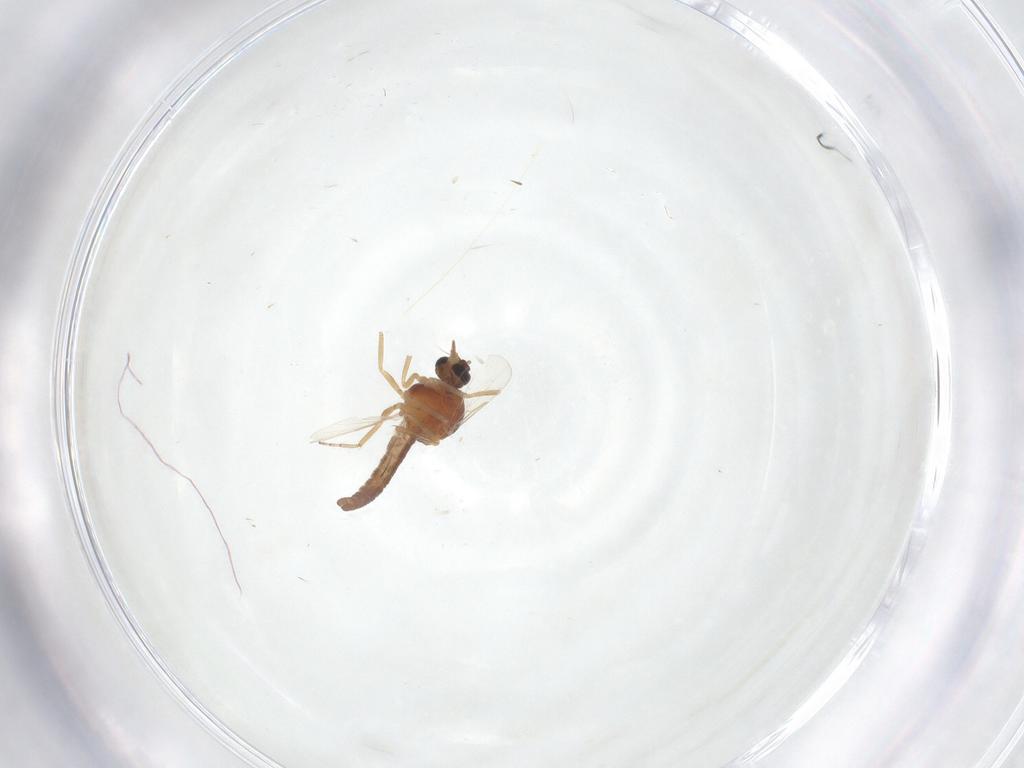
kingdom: Animalia
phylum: Arthropoda
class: Insecta
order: Diptera
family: Ceratopogonidae
